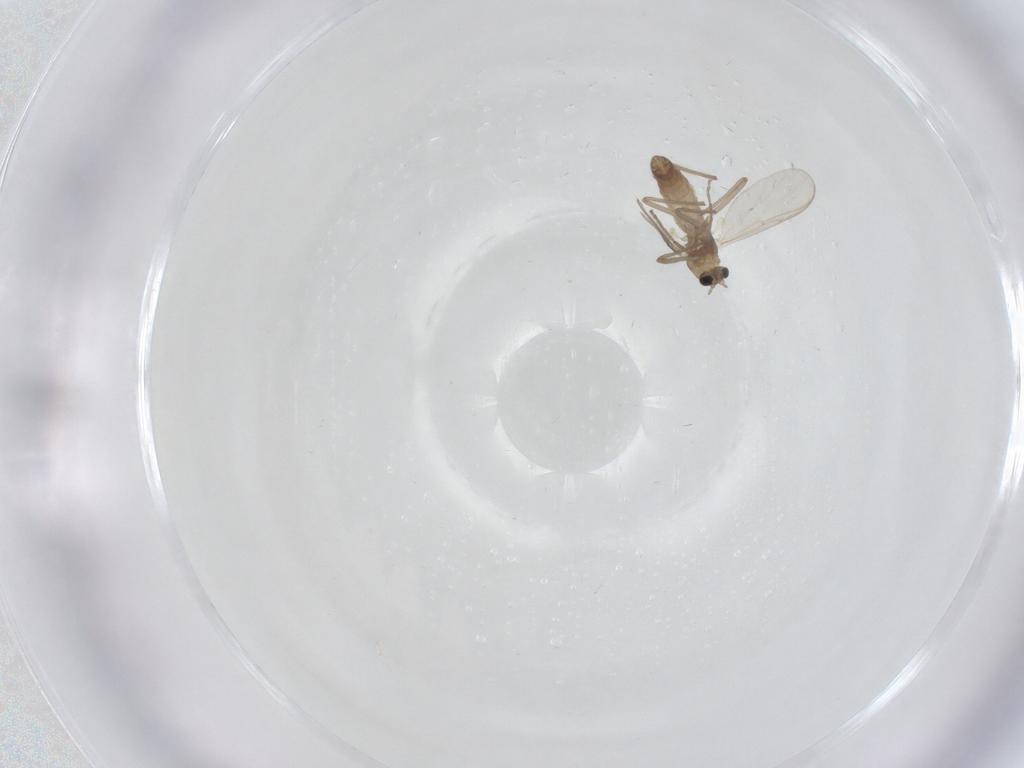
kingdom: Animalia
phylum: Arthropoda
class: Insecta
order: Diptera
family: Chironomidae
